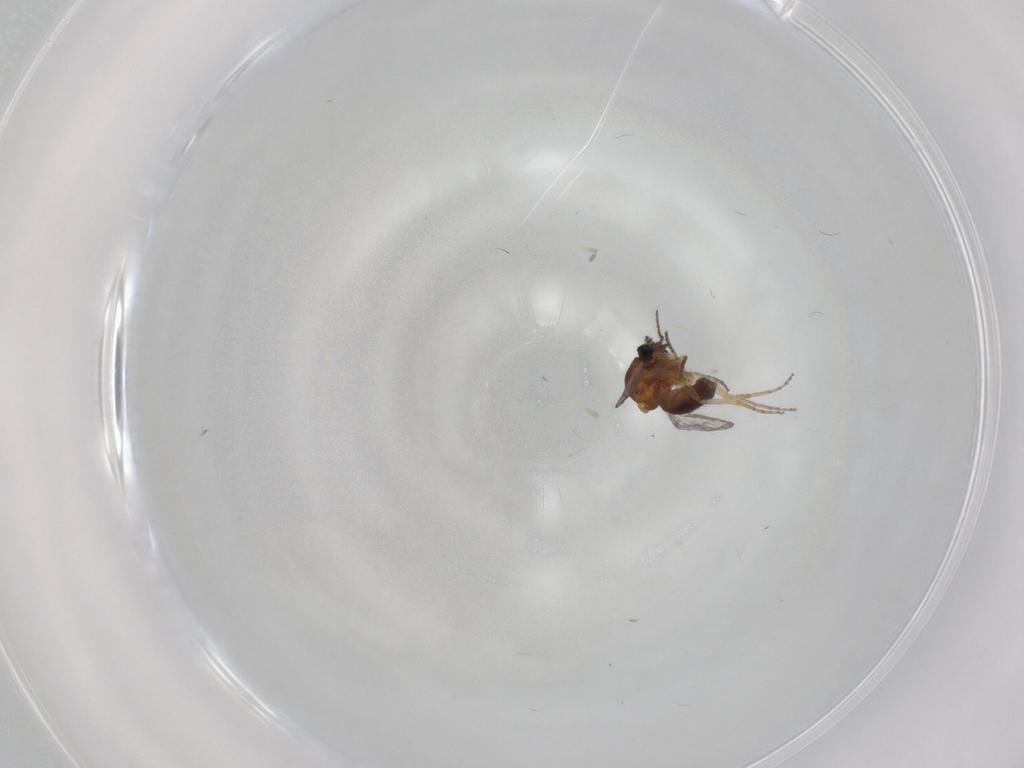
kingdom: Animalia
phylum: Arthropoda
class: Insecta
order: Diptera
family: Ceratopogonidae
